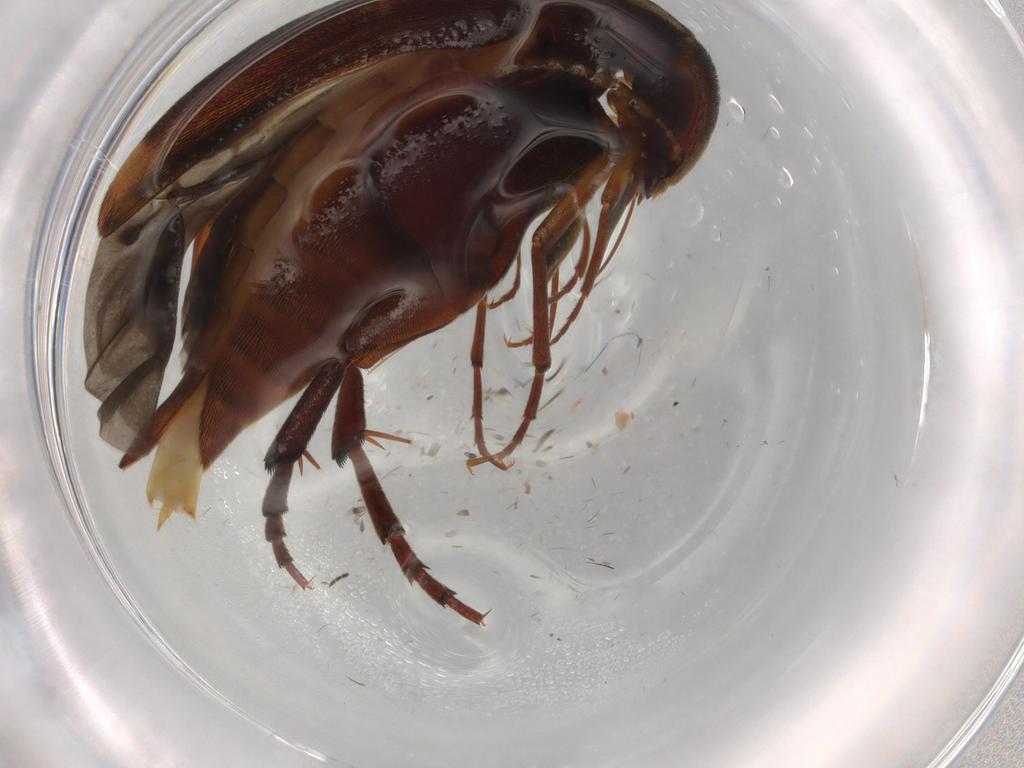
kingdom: Animalia
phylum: Arthropoda
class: Insecta
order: Coleoptera
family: Mordellidae
